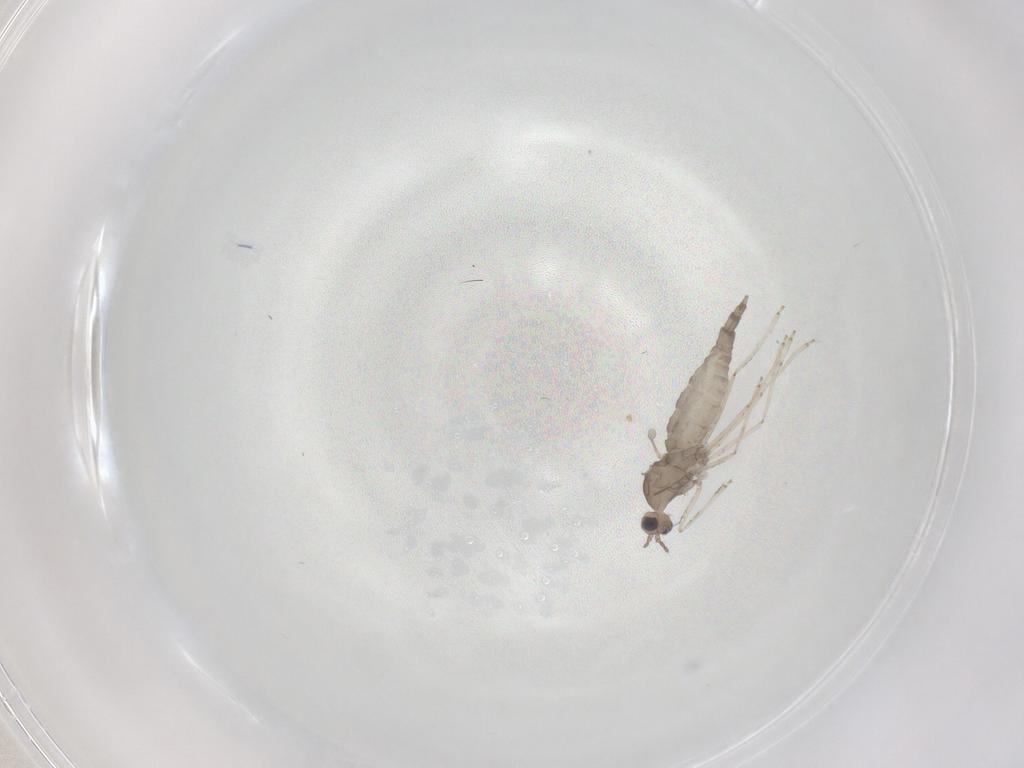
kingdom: Animalia
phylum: Arthropoda
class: Insecta
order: Diptera
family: Cecidomyiidae
